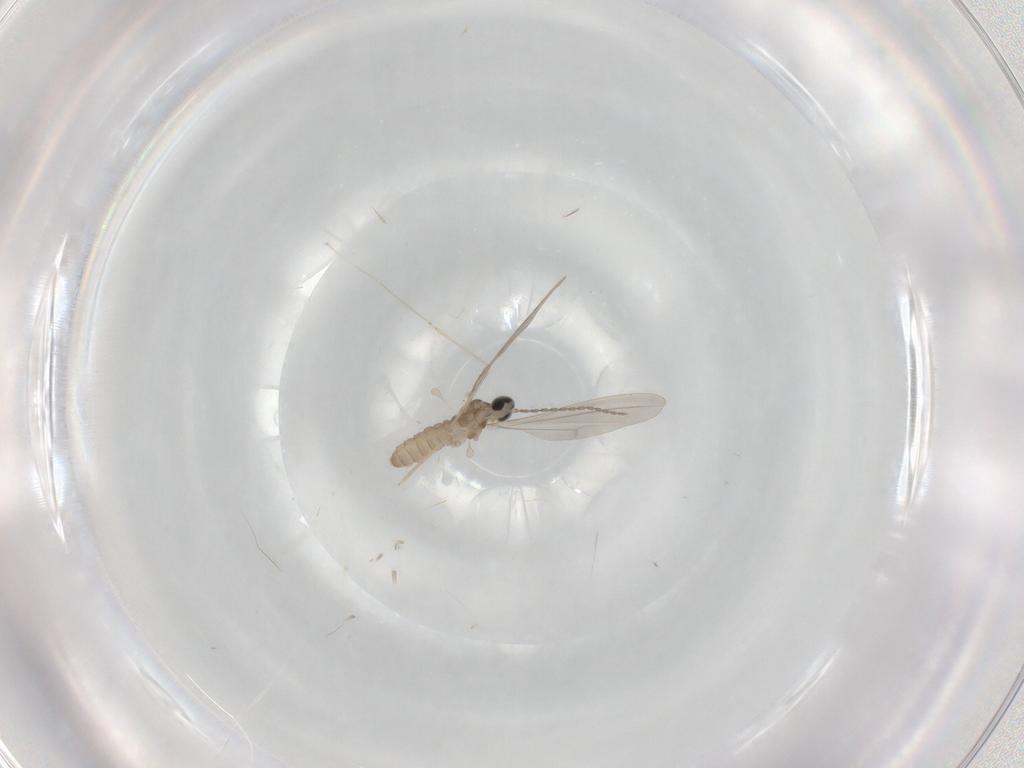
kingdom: Animalia
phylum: Arthropoda
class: Insecta
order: Diptera
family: Cecidomyiidae
